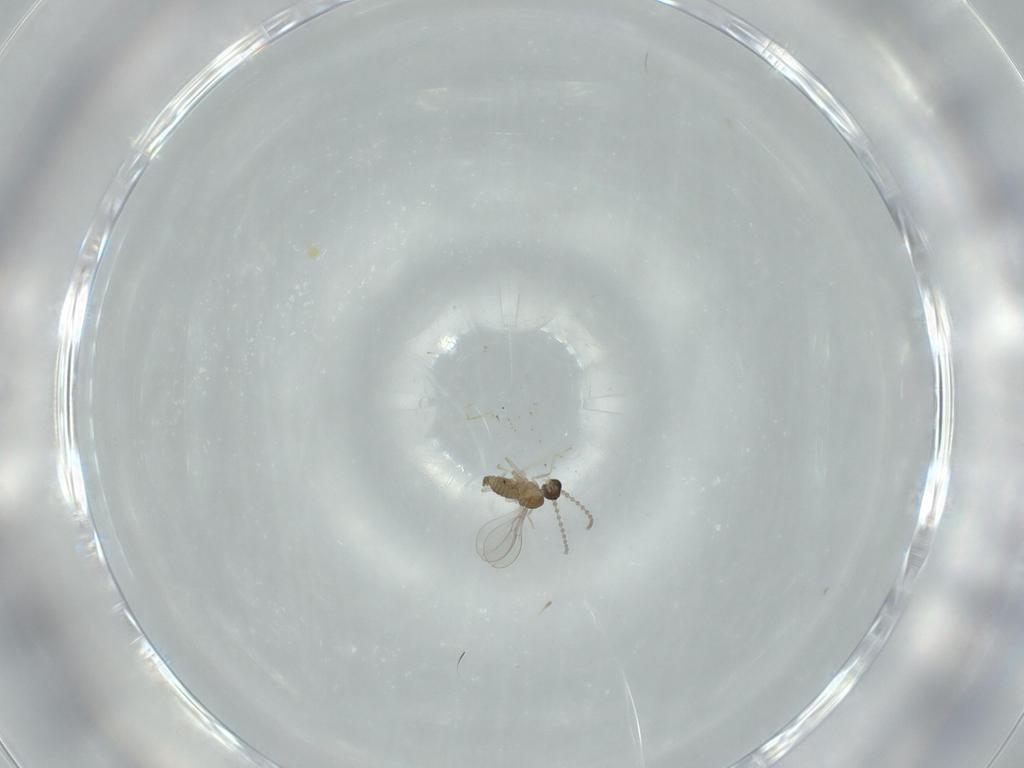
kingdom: Animalia
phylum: Arthropoda
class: Insecta
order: Diptera
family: Cecidomyiidae
